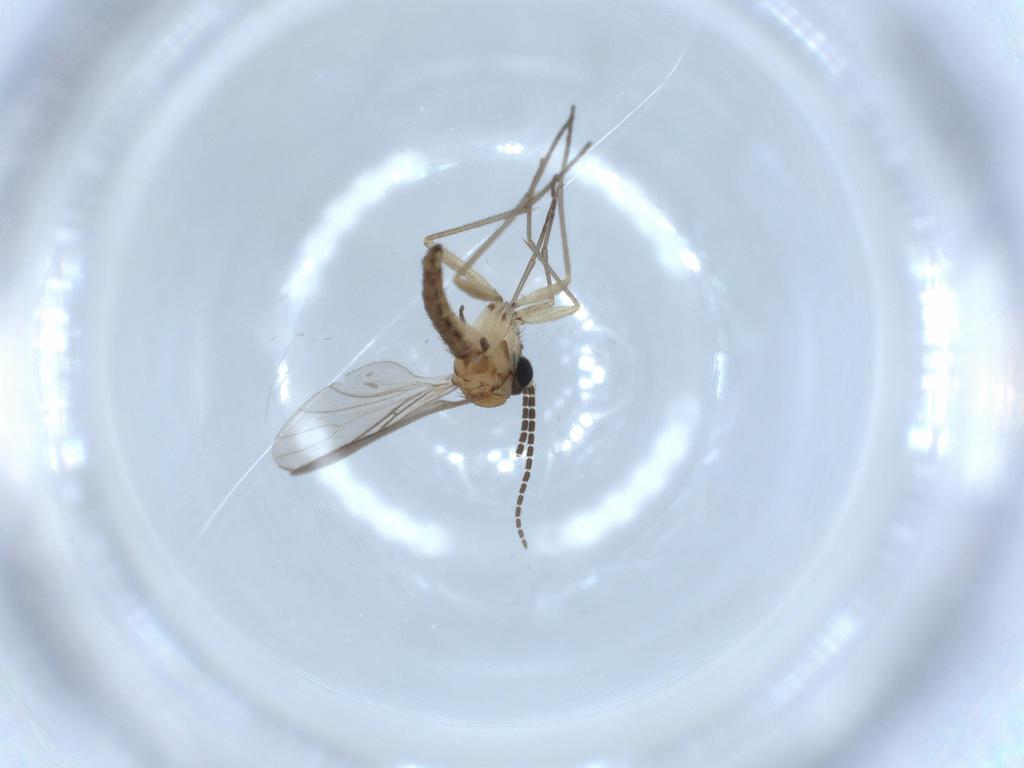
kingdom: Animalia
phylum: Arthropoda
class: Insecta
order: Diptera
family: Sciaridae
